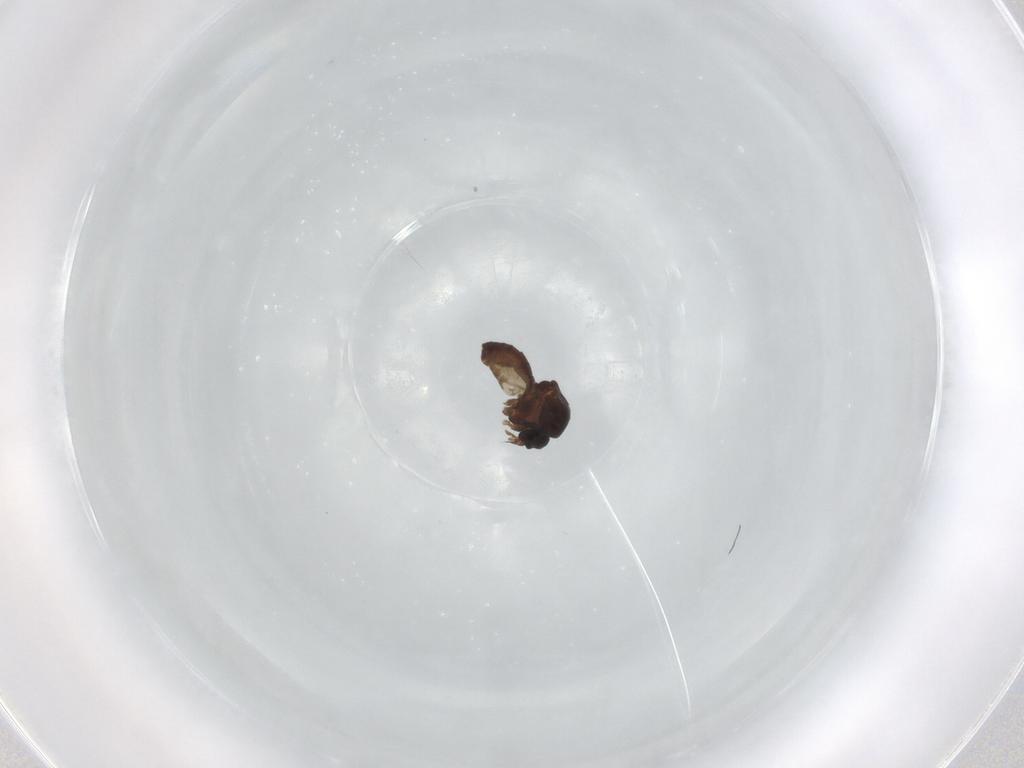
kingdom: Animalia
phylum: Arthropoda
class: Insecta
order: Diptera
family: Ceratopogonidae
